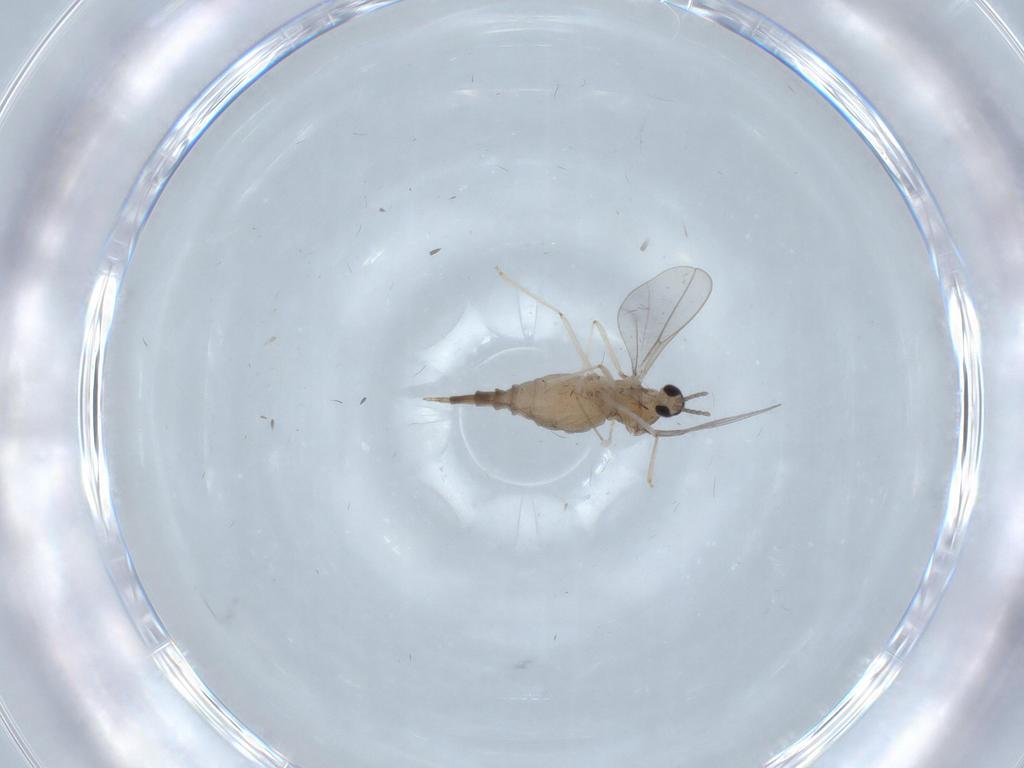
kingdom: Animalia
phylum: Arthropoda
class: Insecta
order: Diptera
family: Cecidomyiidae
